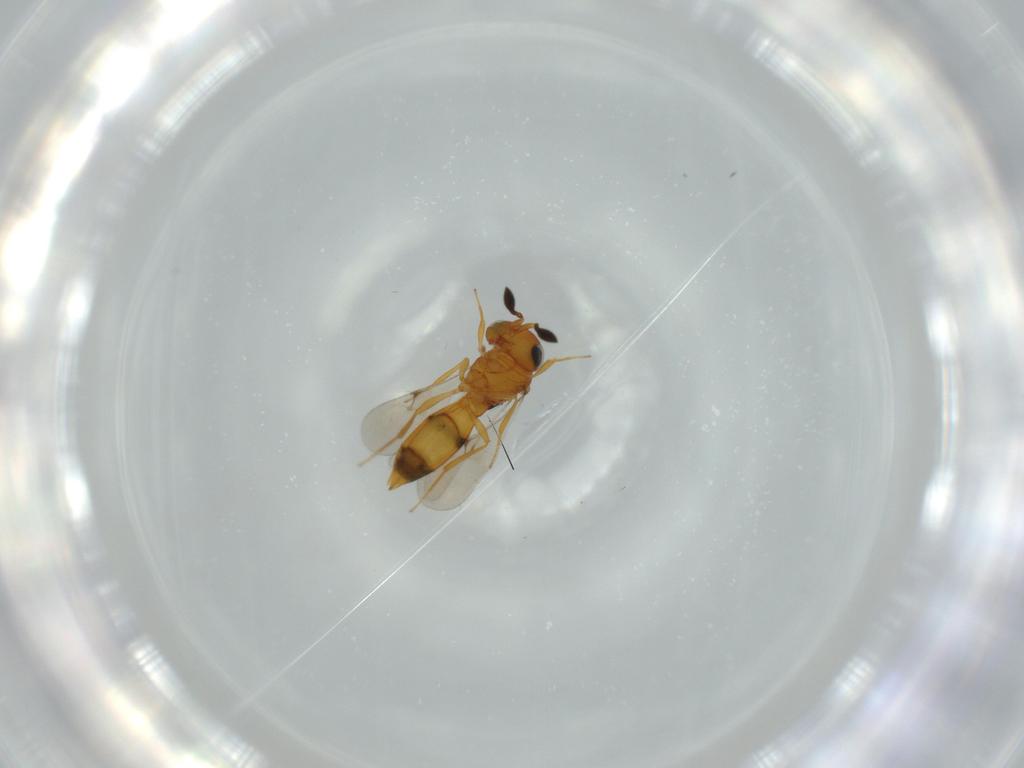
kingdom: Animalia
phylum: Arthropoda
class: Insecta
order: Hymenoptera
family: Scelionidae
